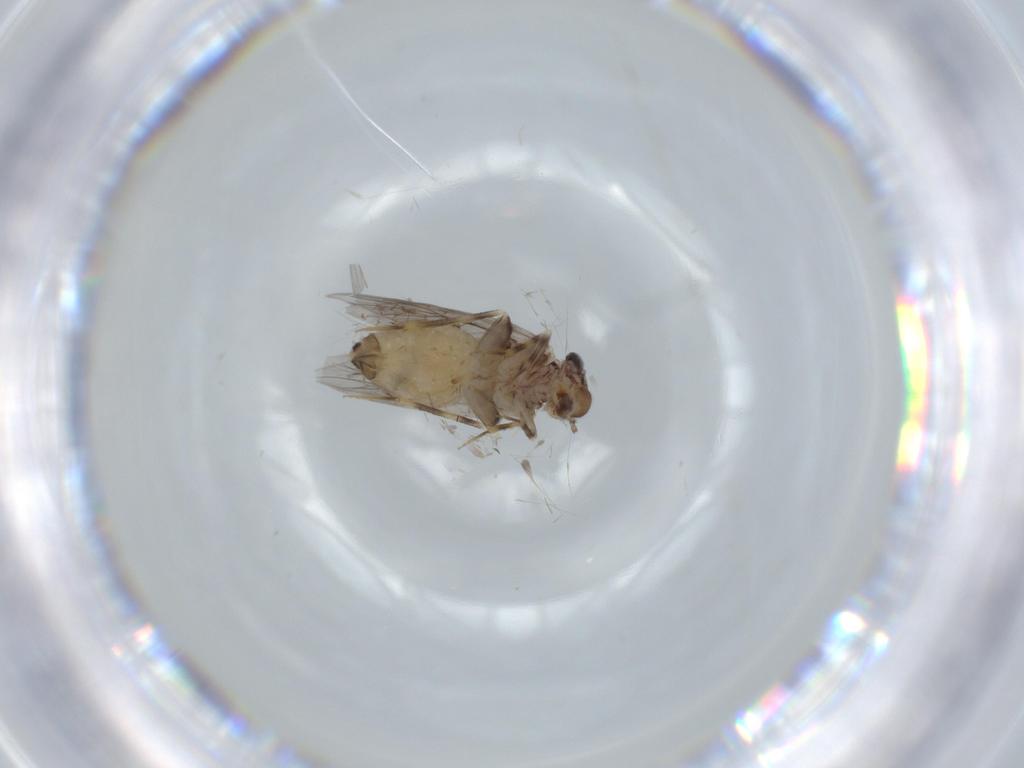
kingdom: Animalia
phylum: Arthropoda
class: Insecta
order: Psocodea
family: Lepidopsocidae
